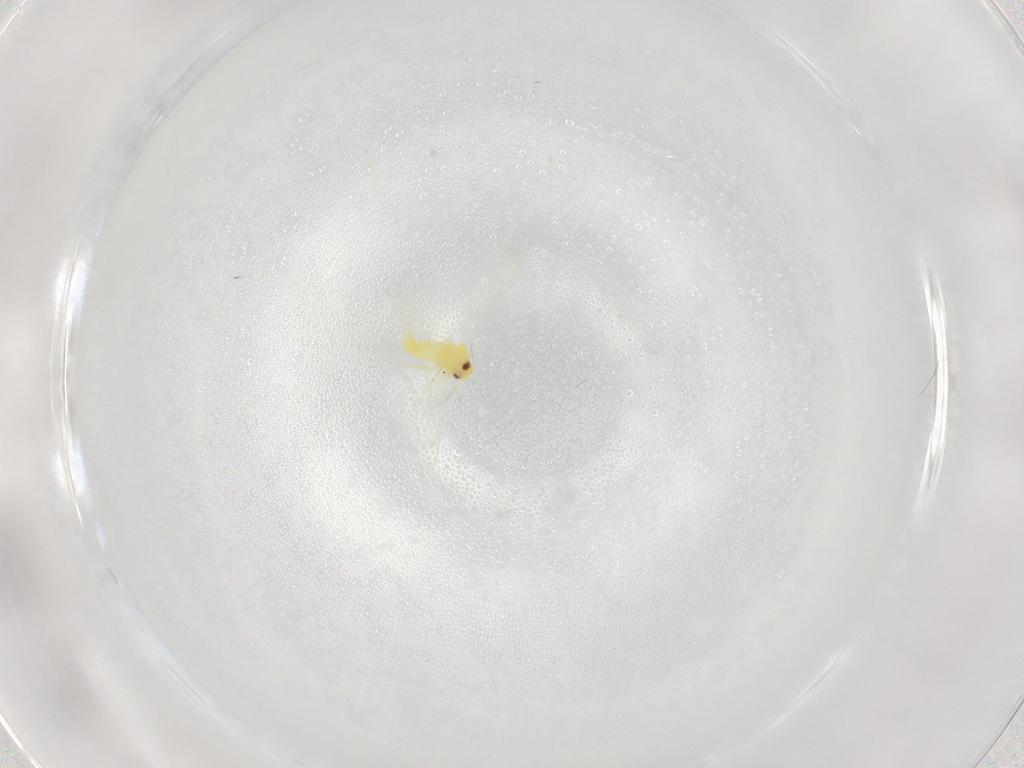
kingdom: Animalia
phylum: Arthropoda
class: Insecta
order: Hemiptera
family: Aleyrodidae
